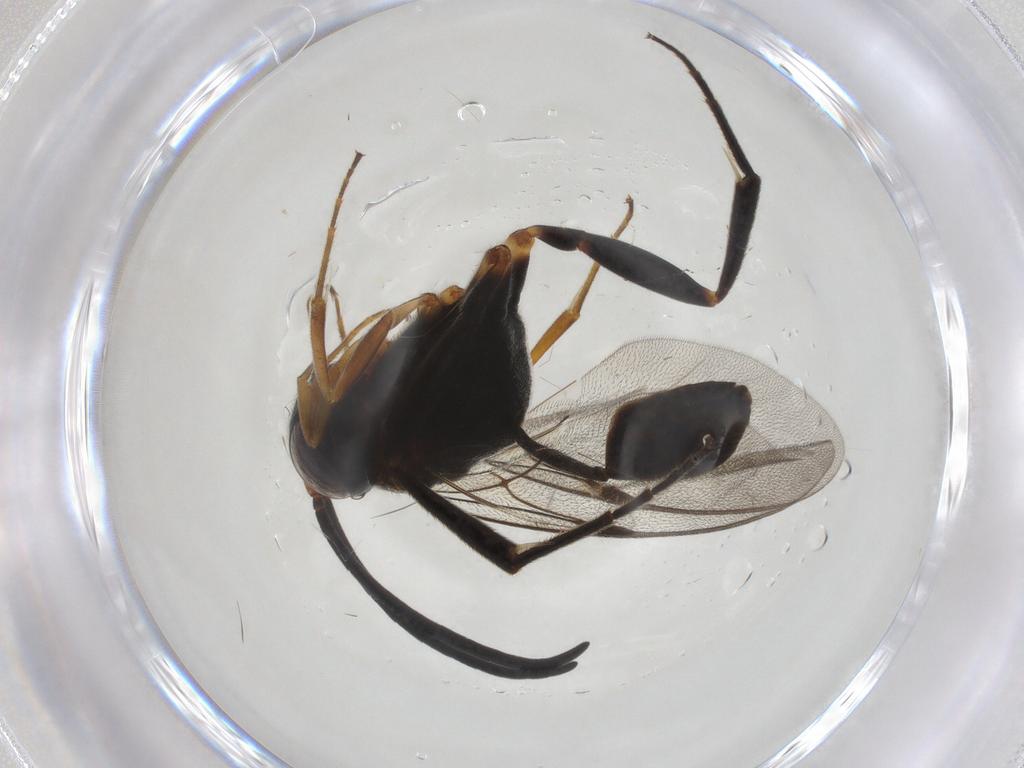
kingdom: Animalia
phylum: Arthropoda
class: Insecta
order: Hymenoptera
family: Evaniidae
